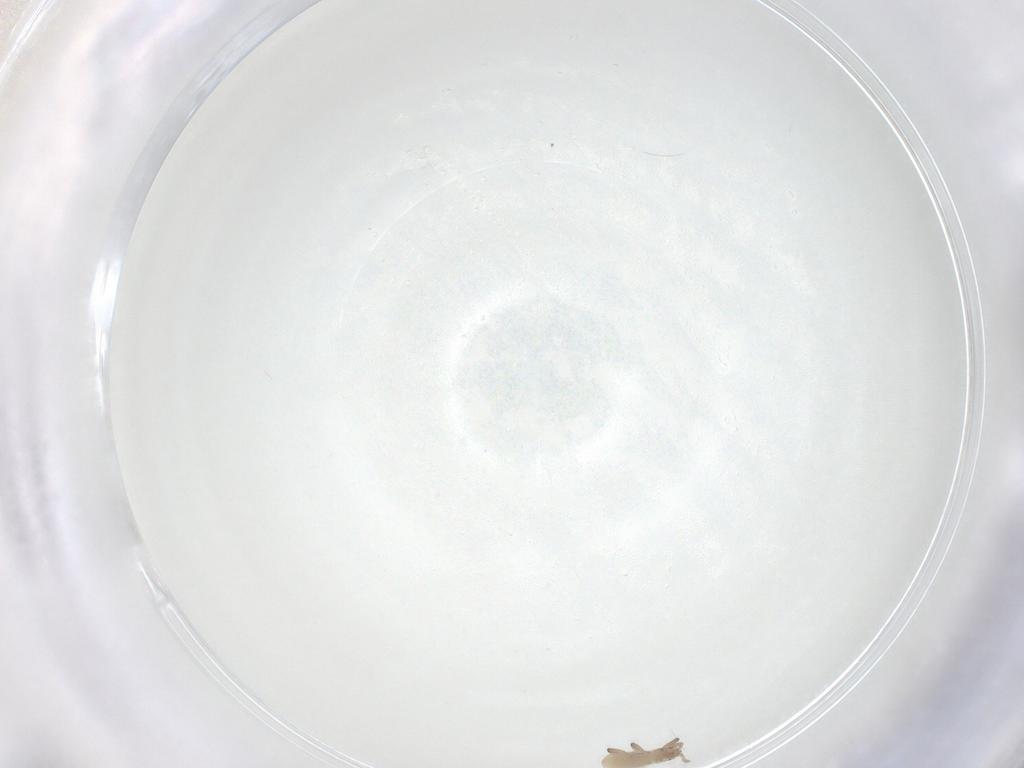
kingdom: Animalia
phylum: Arthropoda
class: Insecta
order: Hemiptera
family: Aphididae
